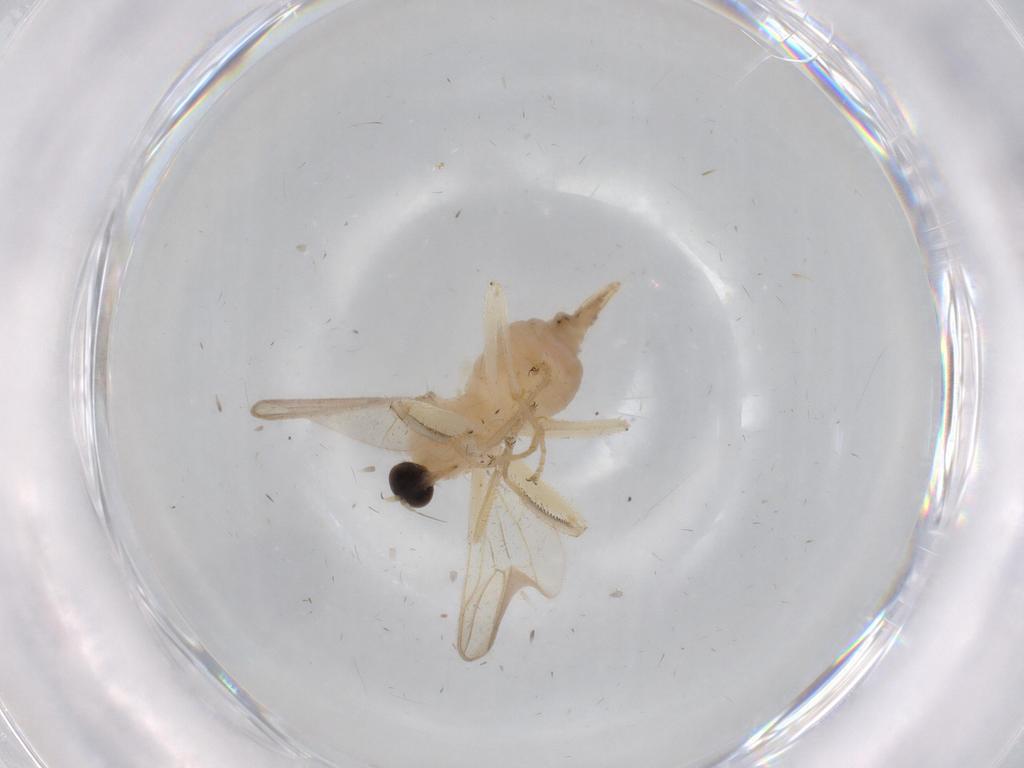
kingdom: Animalia
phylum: Arthropoda
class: Insecta
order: Diptera
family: Hybotidae
